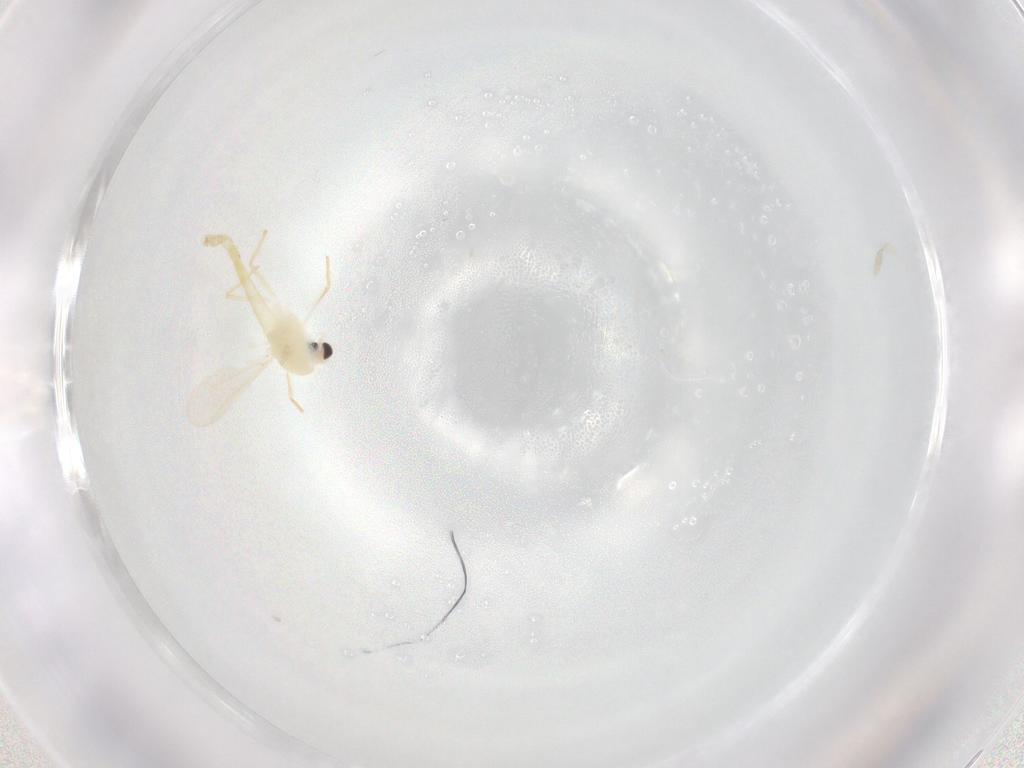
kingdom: Animalia
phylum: Arthropoda
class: Insecta
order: Diptera
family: Chironomidae
